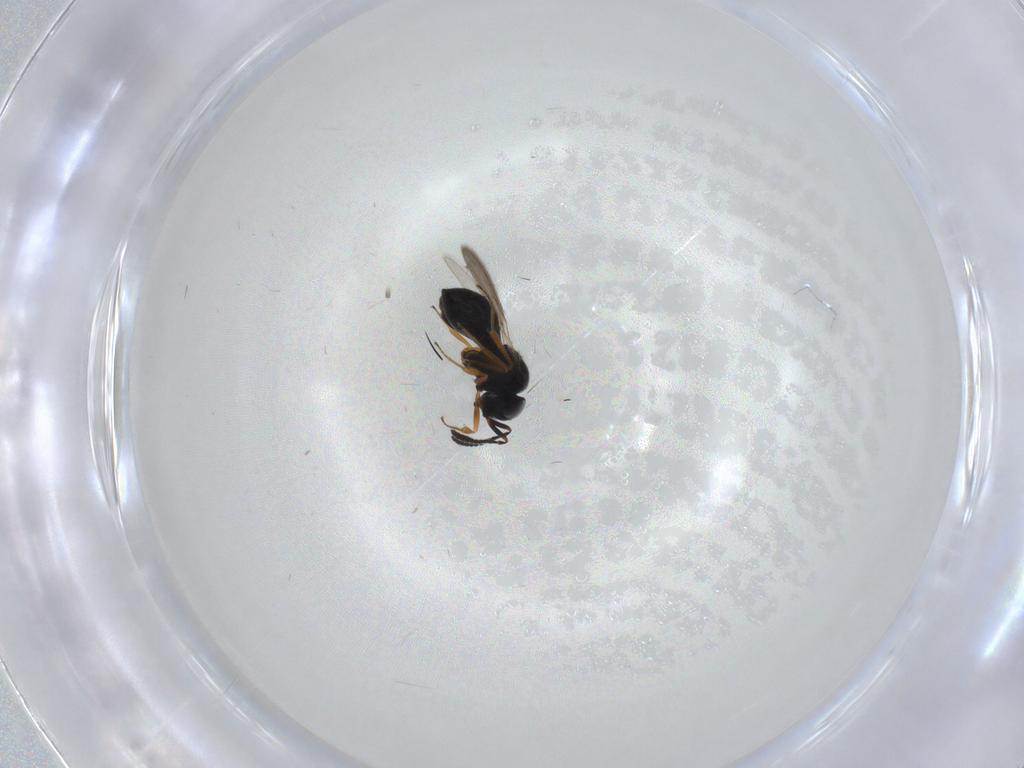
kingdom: Animalia
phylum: Arthropoda
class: Insecta
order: Hymenoptera
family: Scelionidae
